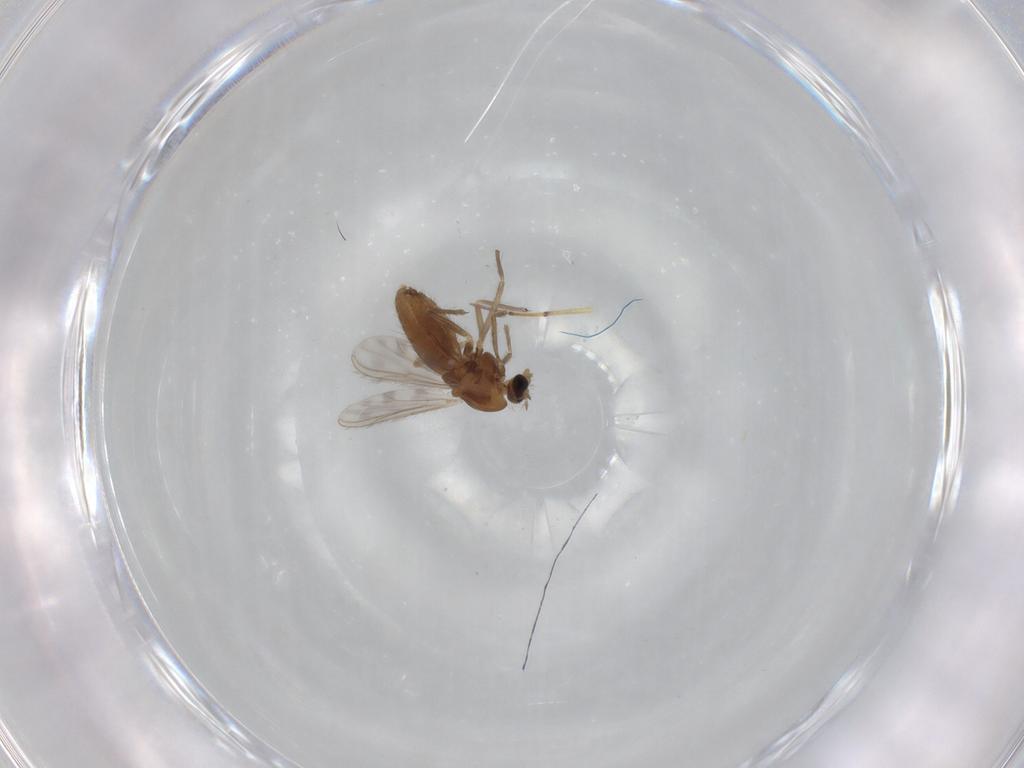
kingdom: Animalia
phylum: Arthropoda
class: Insecta
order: Diptera
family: Chironomidae
